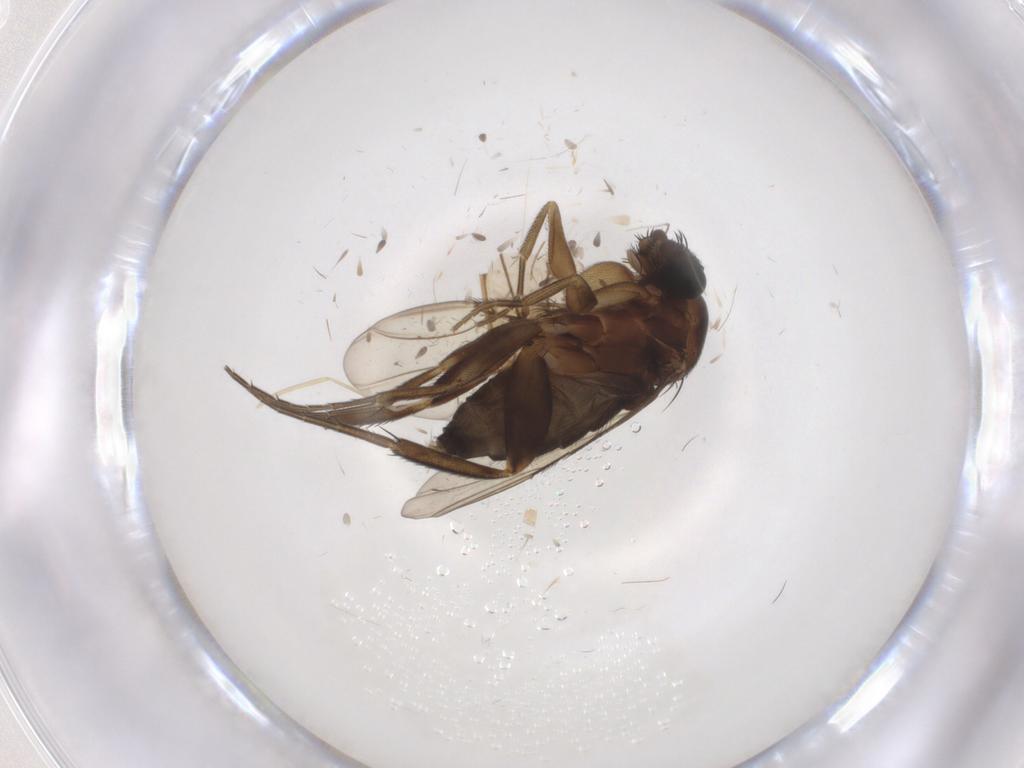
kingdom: Animalia
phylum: Arthropoda
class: Insecta
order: Diptera
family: Phoridae
